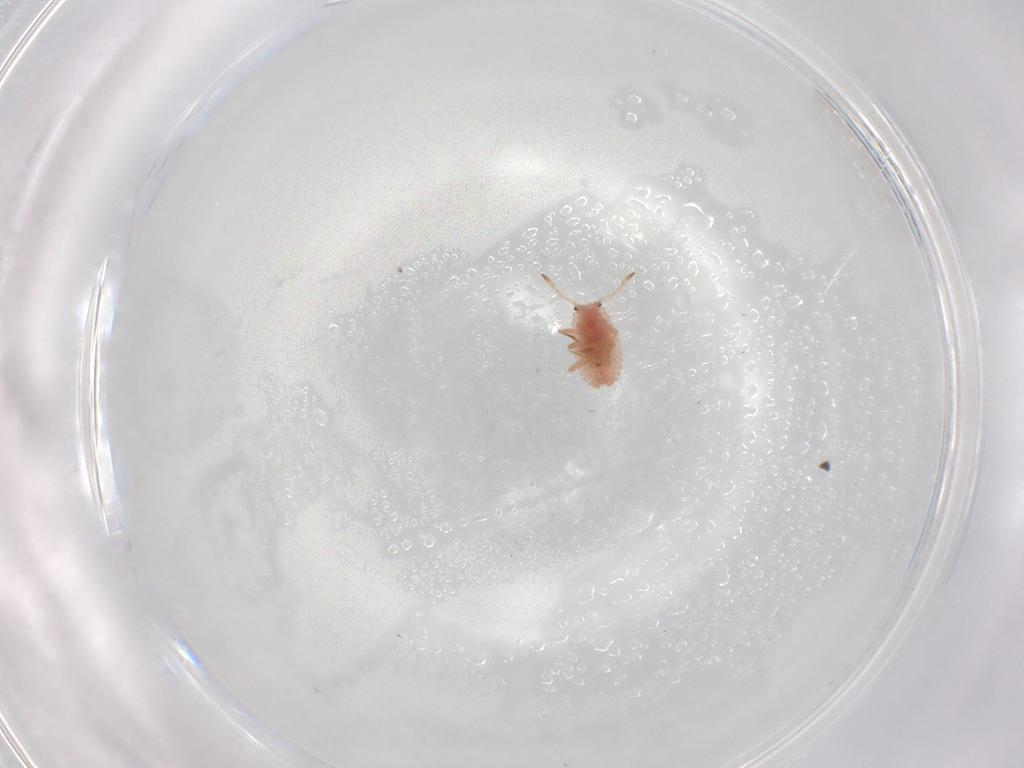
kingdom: Animalia
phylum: Arthropoda
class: Insecta
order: Hemiptera
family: Coccoidea_incertae_sedis
